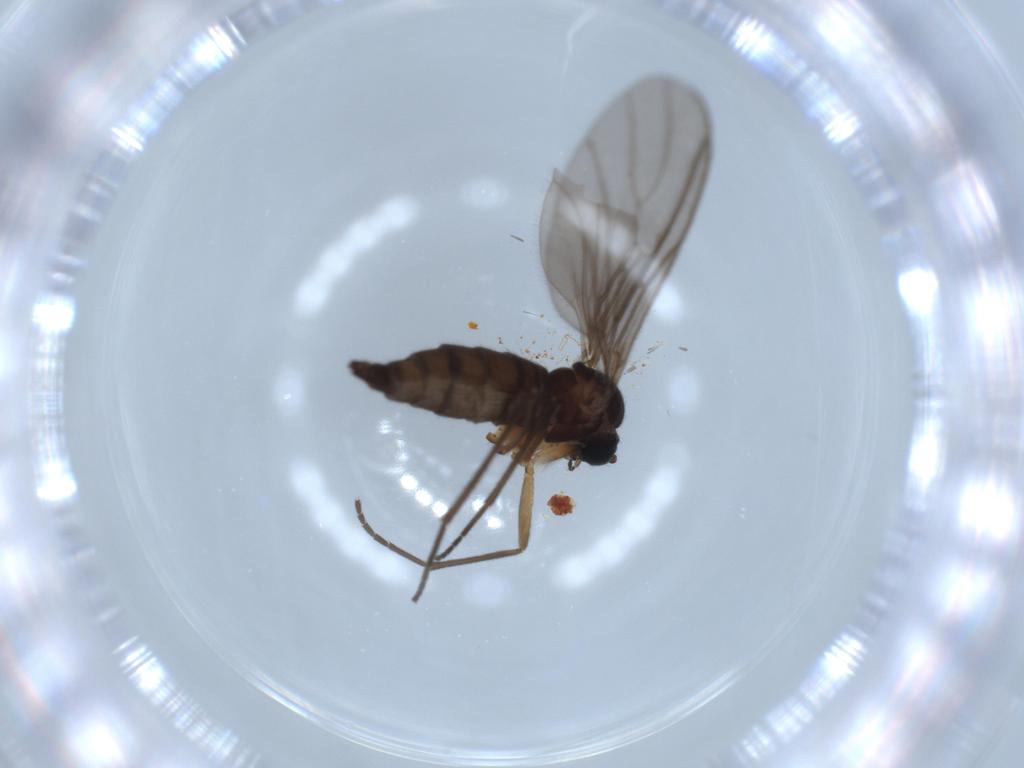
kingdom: Animalia
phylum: Arthropoda
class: Insecta
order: Diptera
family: Sciaridae
